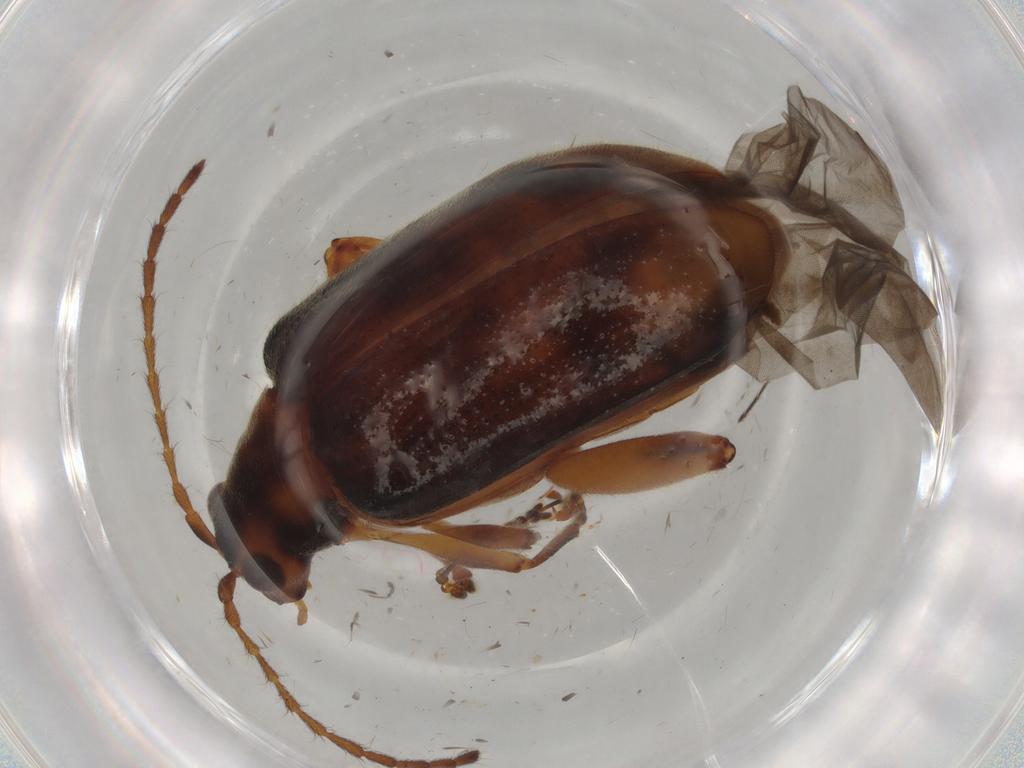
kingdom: Animalia
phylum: Arthropoda
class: Insecta
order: Coleoptera
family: Chrysomelidae
